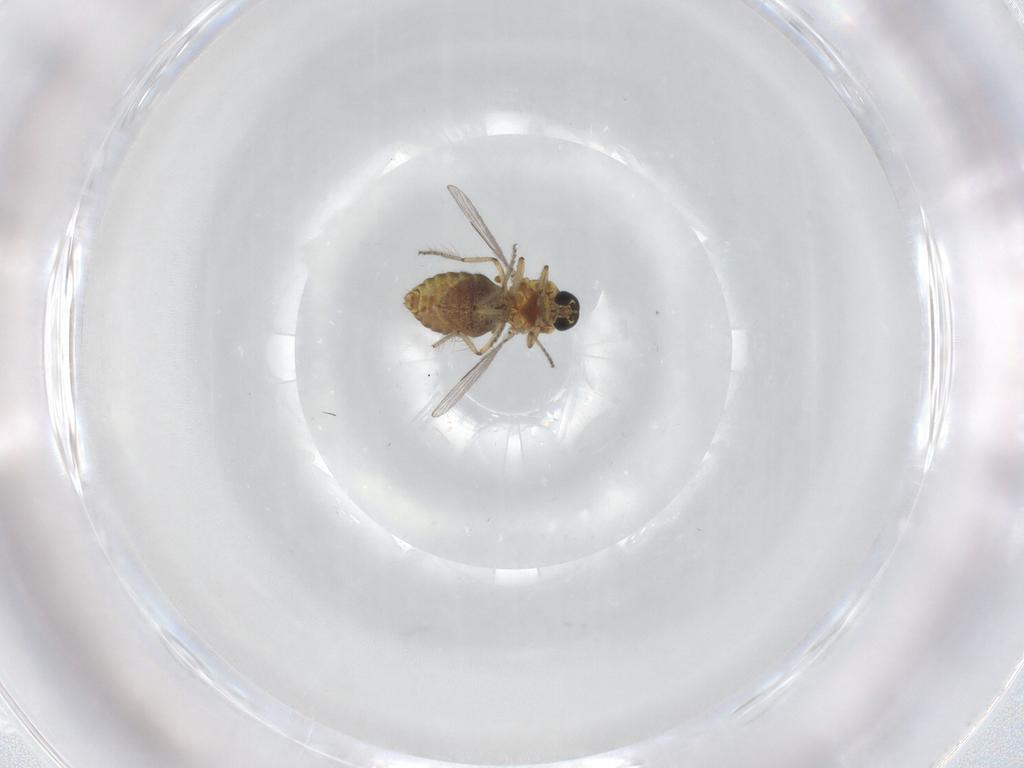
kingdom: Animalia
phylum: Arthropoda
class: Insecta
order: Diptera
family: Ceratopogonidae
